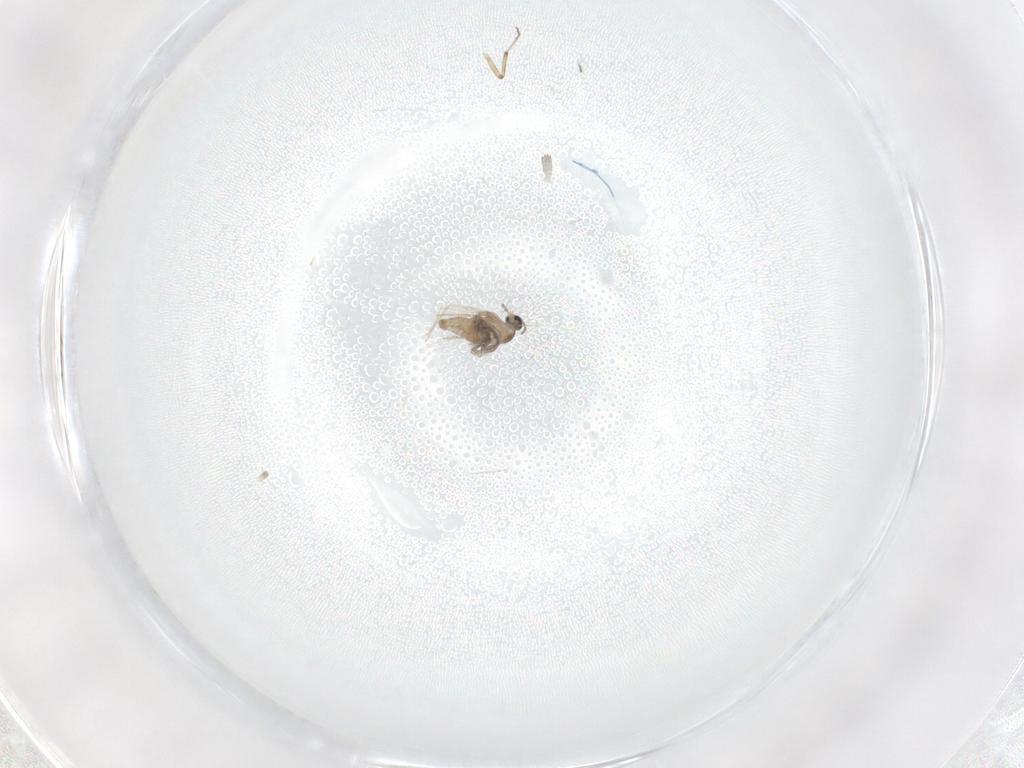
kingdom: Animalia
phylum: Arthropoda
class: Insecta
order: Diptera
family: Cecidomyiidae
